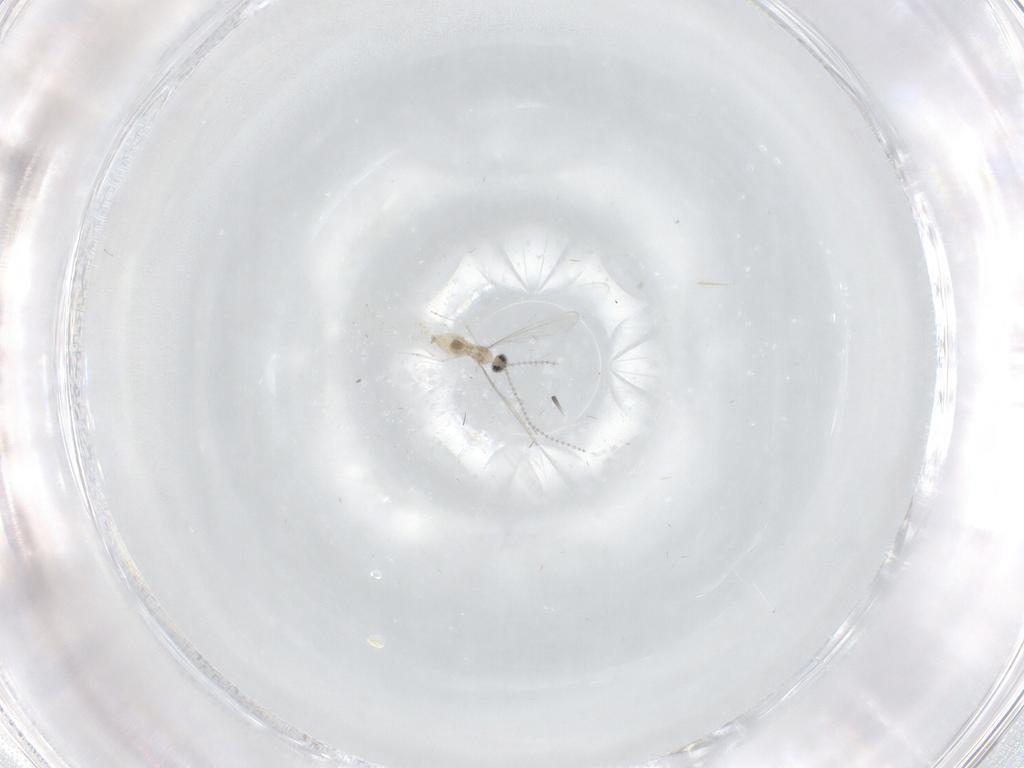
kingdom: Animalia
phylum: Arthropoda
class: Insecta
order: Diptera
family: Cecidomyiidae
